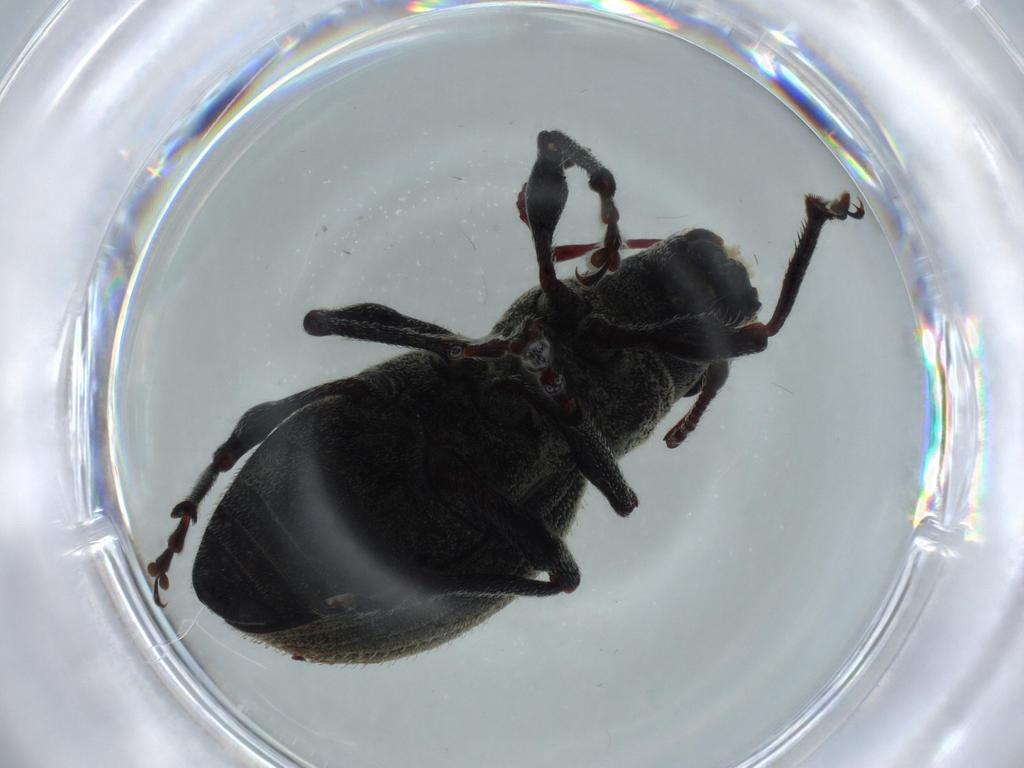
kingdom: Animalia
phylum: Arthropoda
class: Insecta
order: Coleoptera
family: Curculionidae
